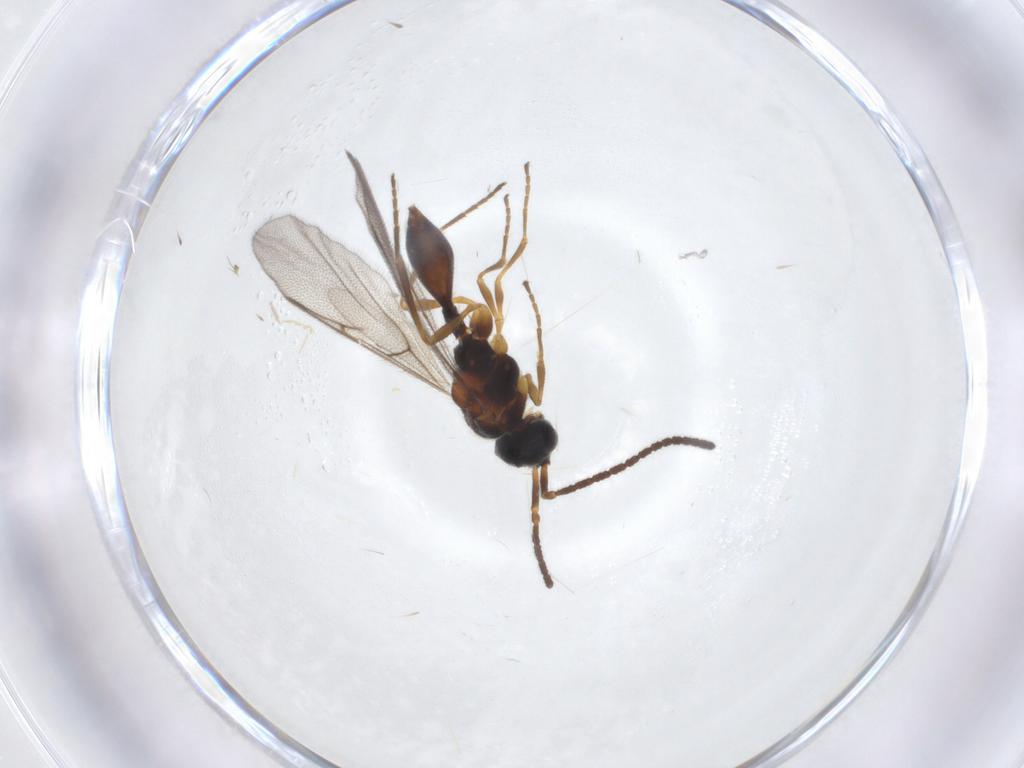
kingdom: Animalia
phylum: Arthropoda
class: Insecta
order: Hymenoptera
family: Diapriidae
